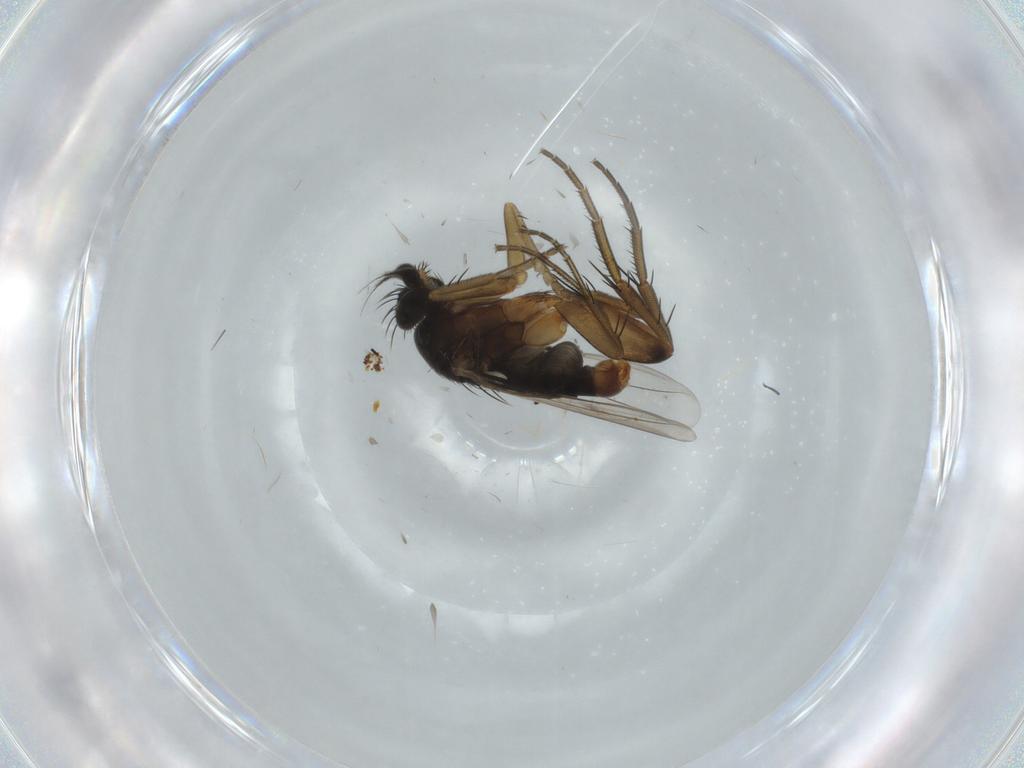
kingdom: Animalia
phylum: Arthropoda
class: Insecta
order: Diptera
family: Phoridae
